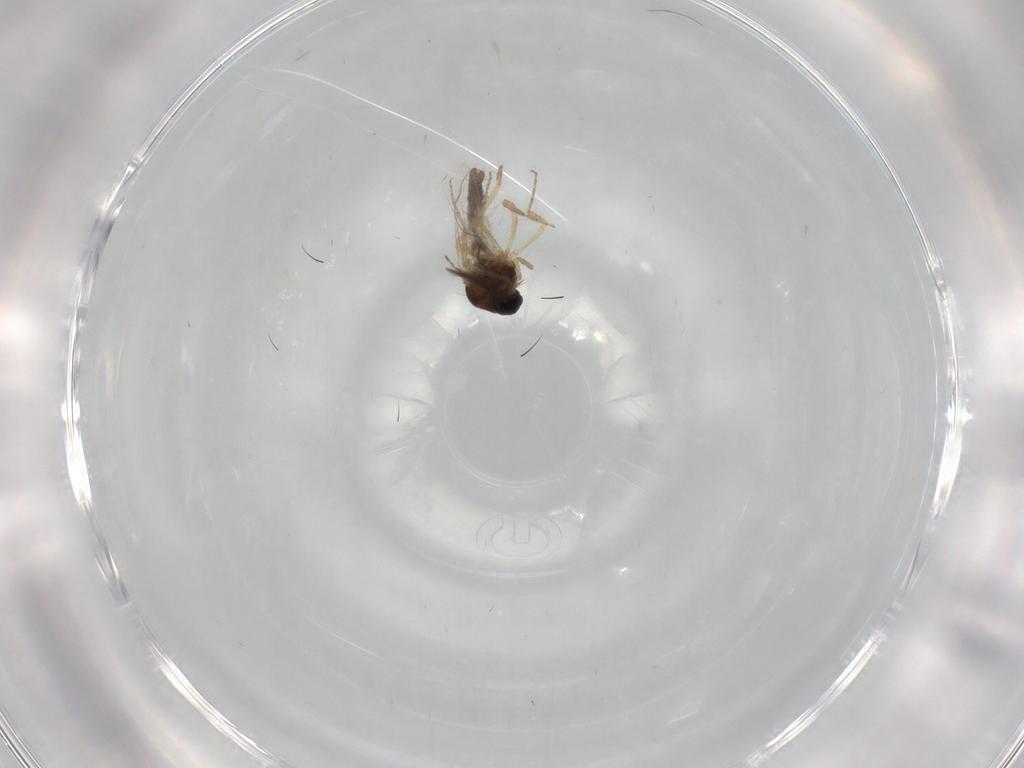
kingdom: Animalia
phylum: Arthropoda
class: Insecta
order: Diptera
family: Ceratopogonidae
